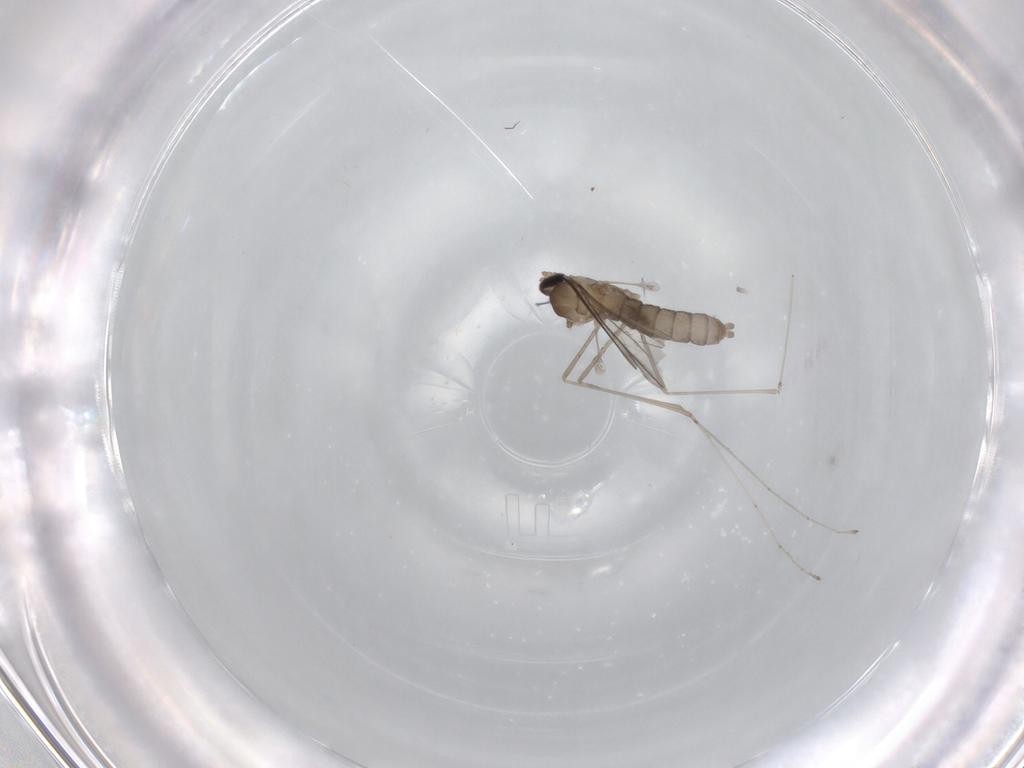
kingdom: Animalia
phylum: Arthropoda
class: Insecta
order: Diptera
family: Cecidomyiidae
